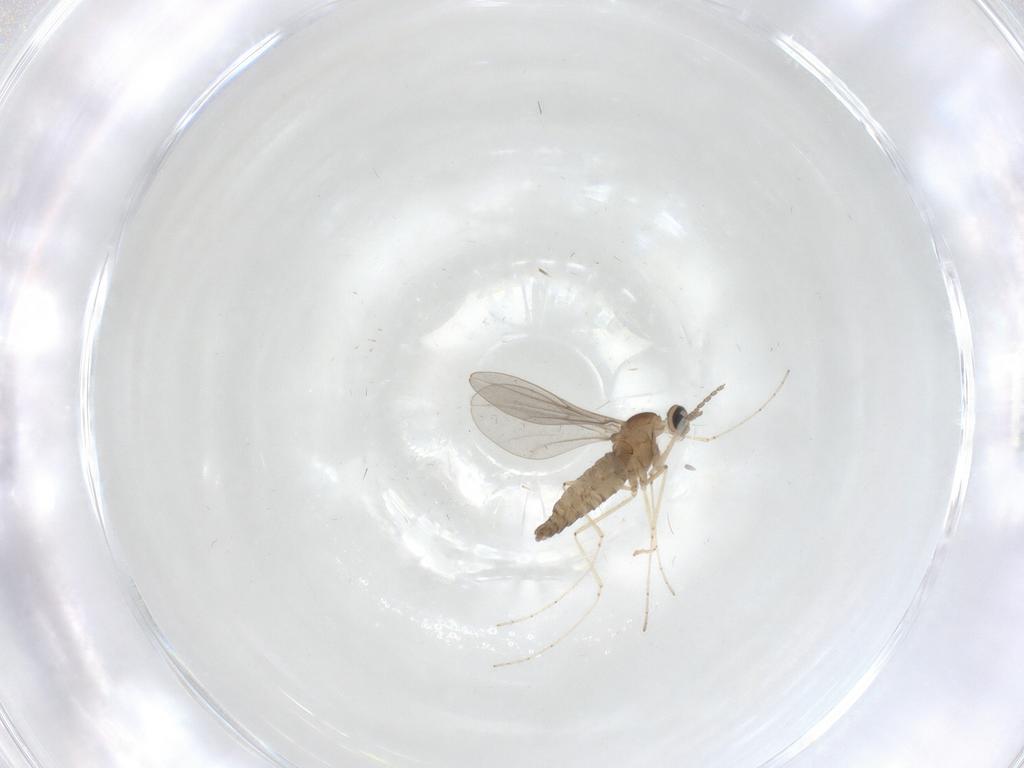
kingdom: Animalia
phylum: Arthropoda
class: Insecta
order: Diptera
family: Cecidomyiidae
